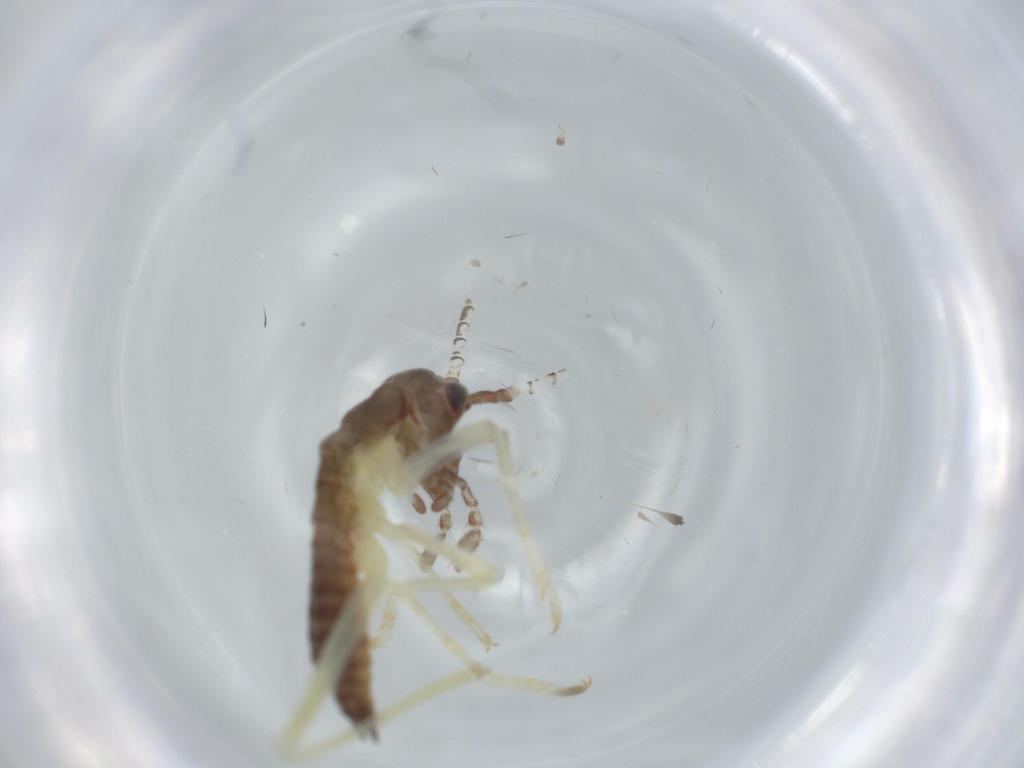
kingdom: Animalia
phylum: Arthropoda
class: Insecta
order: Orthoptera
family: Oecanthidae
